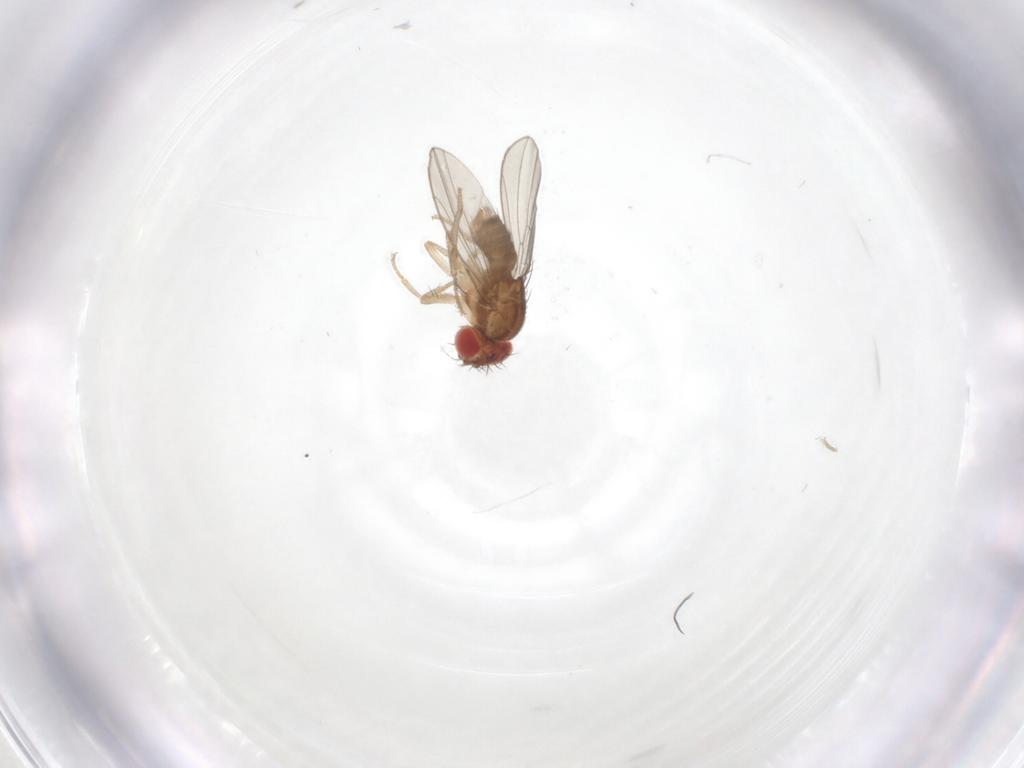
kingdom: Animalia
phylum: Arthropoda
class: Insecta
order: Diptera
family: Drosophilidae
